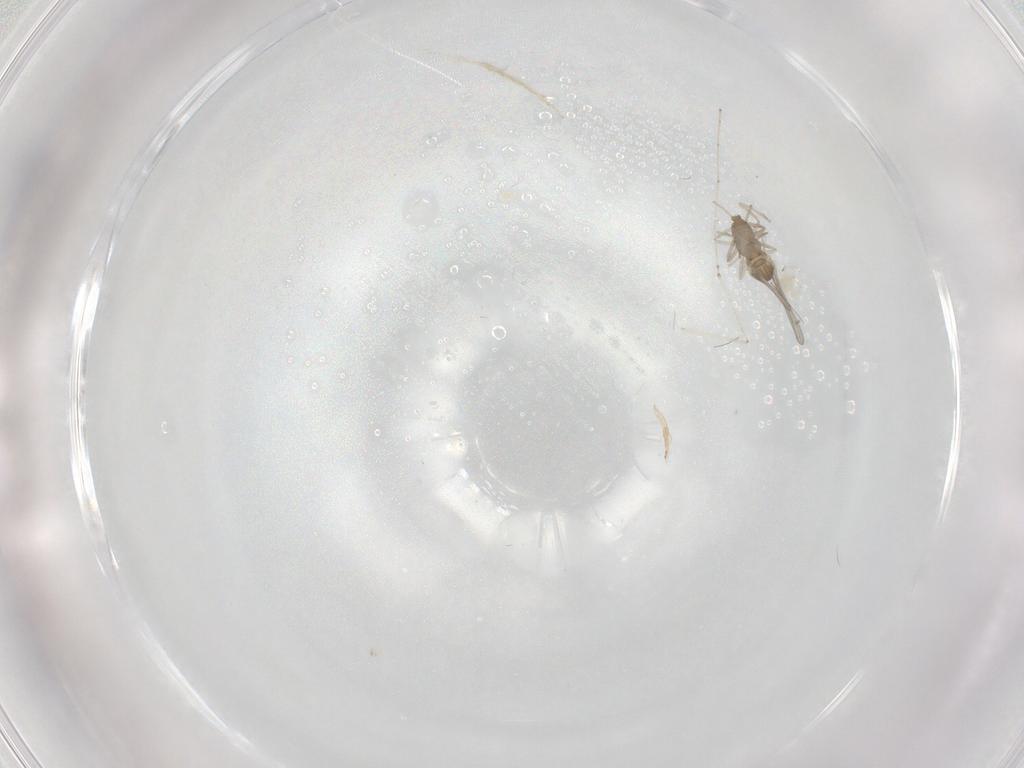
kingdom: Animalia
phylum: Arthropoda
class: Insecta
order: Diptera
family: Cecidomyiidae
